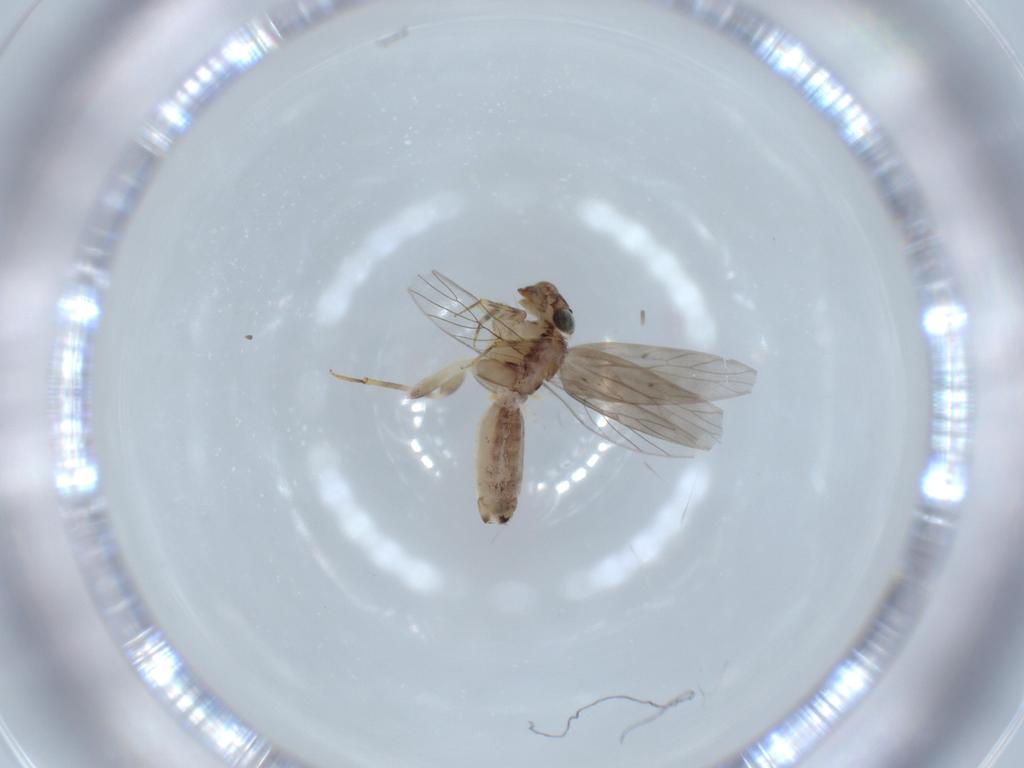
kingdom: Animalia
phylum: Arthropoda
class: Insecta
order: Psocodea
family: Lepidopsocidae
